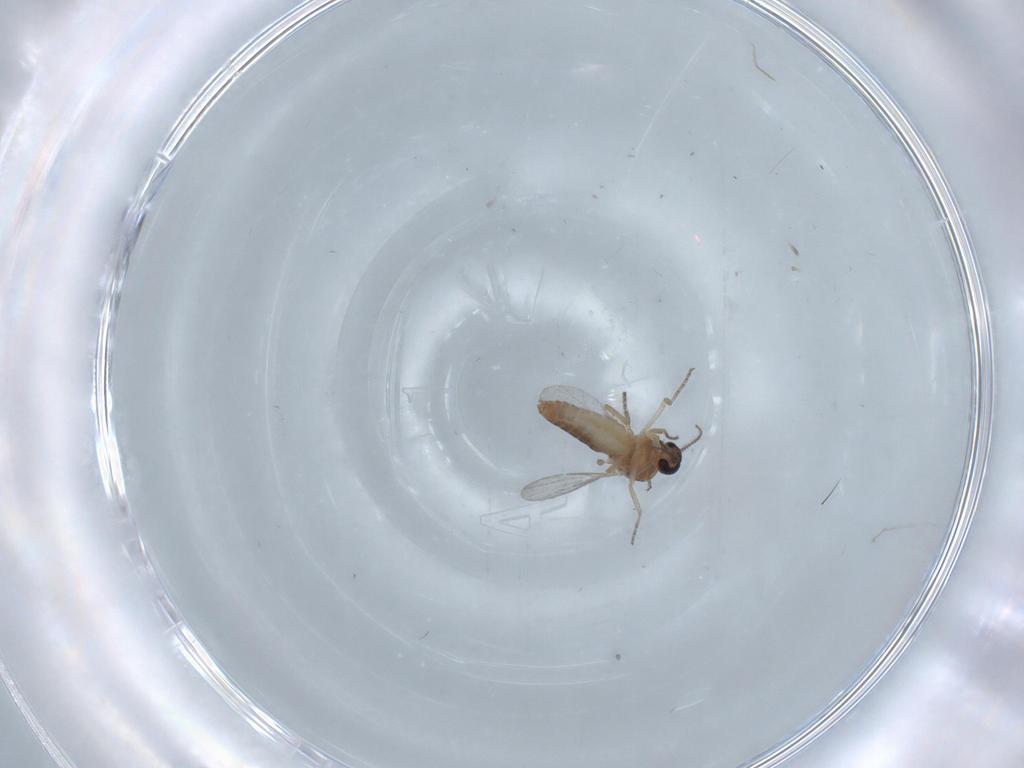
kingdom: Animalia
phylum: Arthropoda
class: Insecta
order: Diptera
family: Ceratopogonidae
